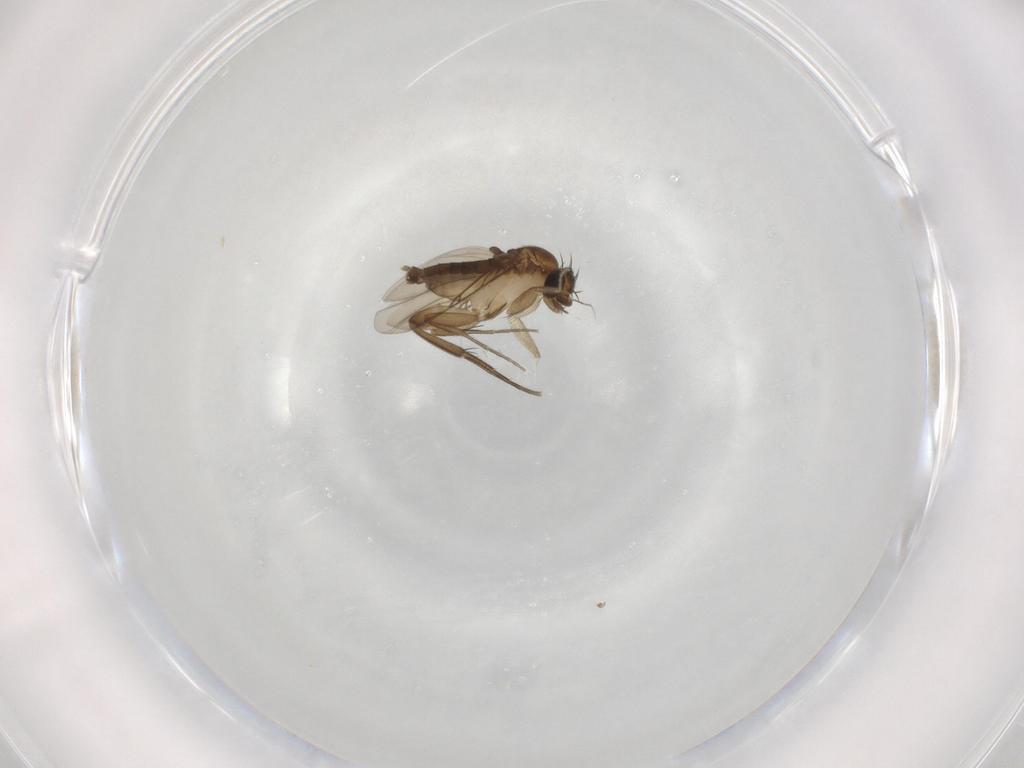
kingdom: Animalia
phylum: Arthropoda
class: Insecta
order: Diptera
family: Phoridae
